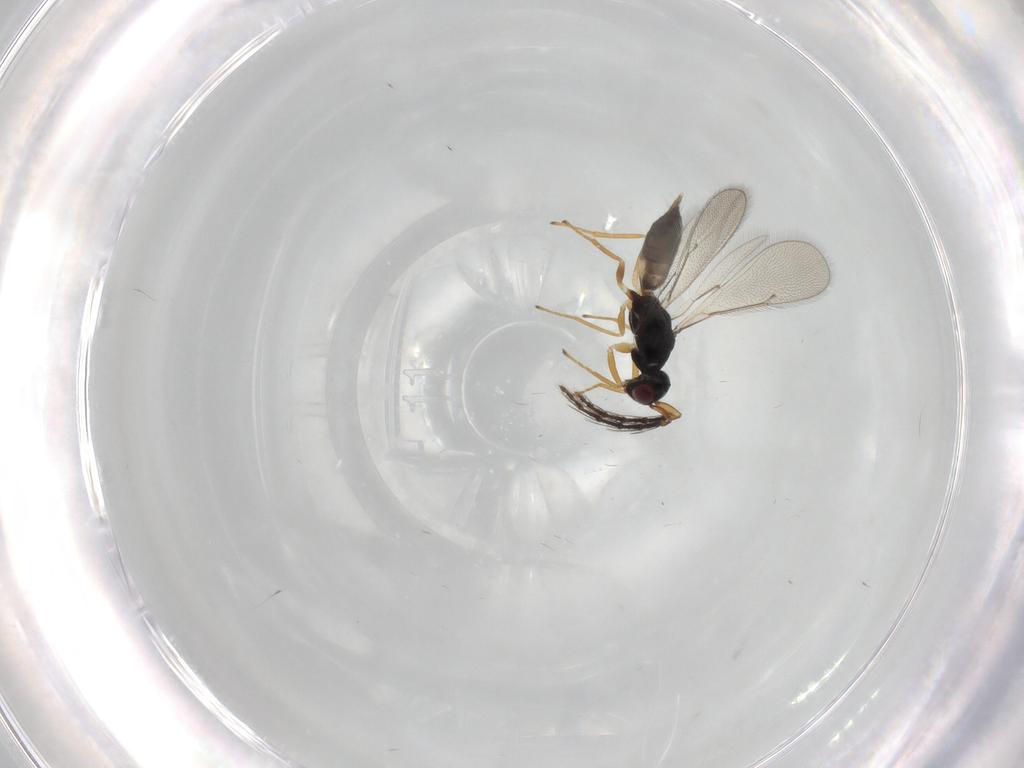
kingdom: Animalia
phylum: Arthropoda
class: Insecta
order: Hymenoptera
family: Eulophidae
